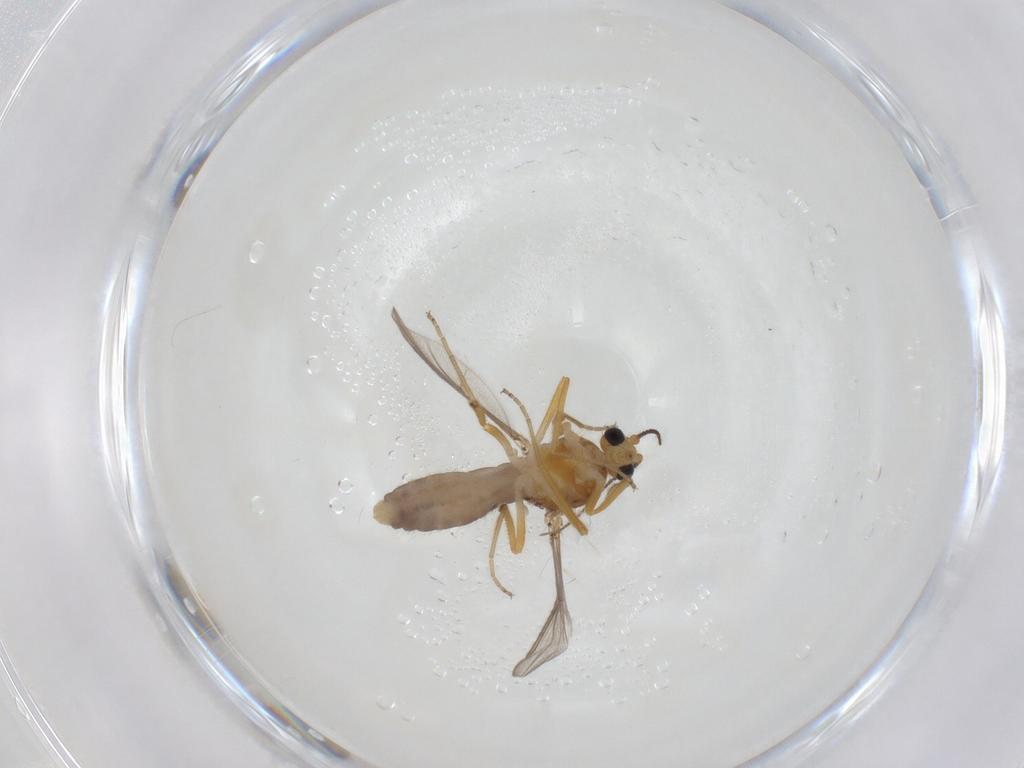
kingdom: Animalia
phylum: Arthropoda
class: Insecta
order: Diptera
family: Ceratopogonidae
